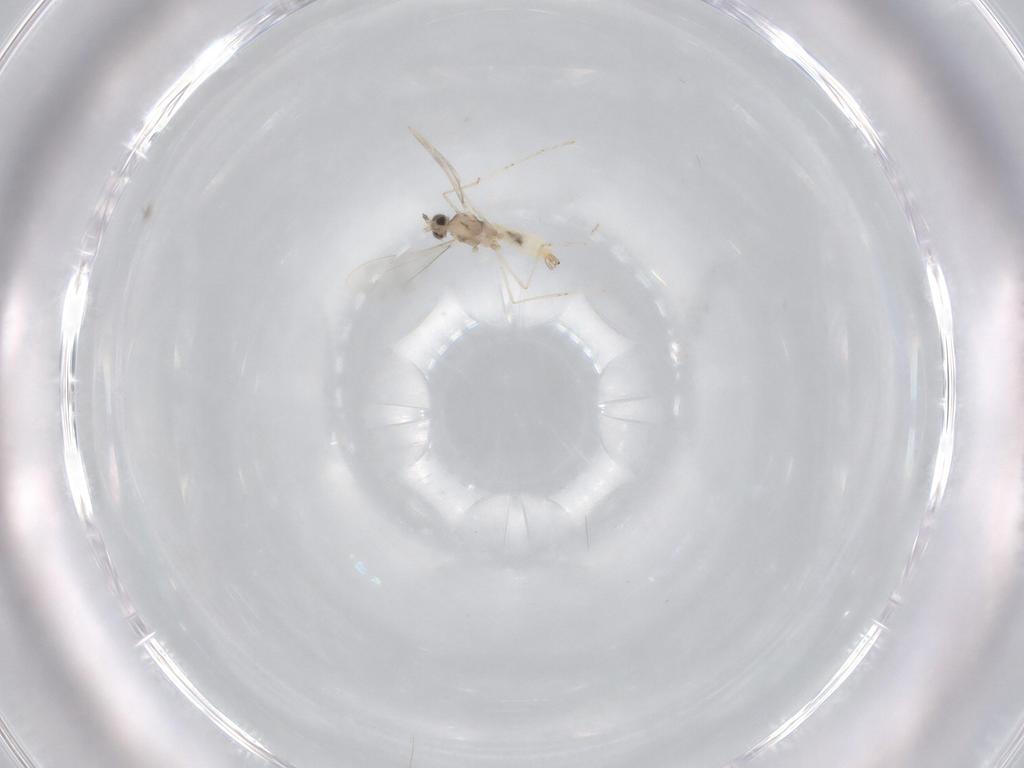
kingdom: Animalia
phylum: Arthropoda
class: Insecta
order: Diptera
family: Cecidomyiidae
